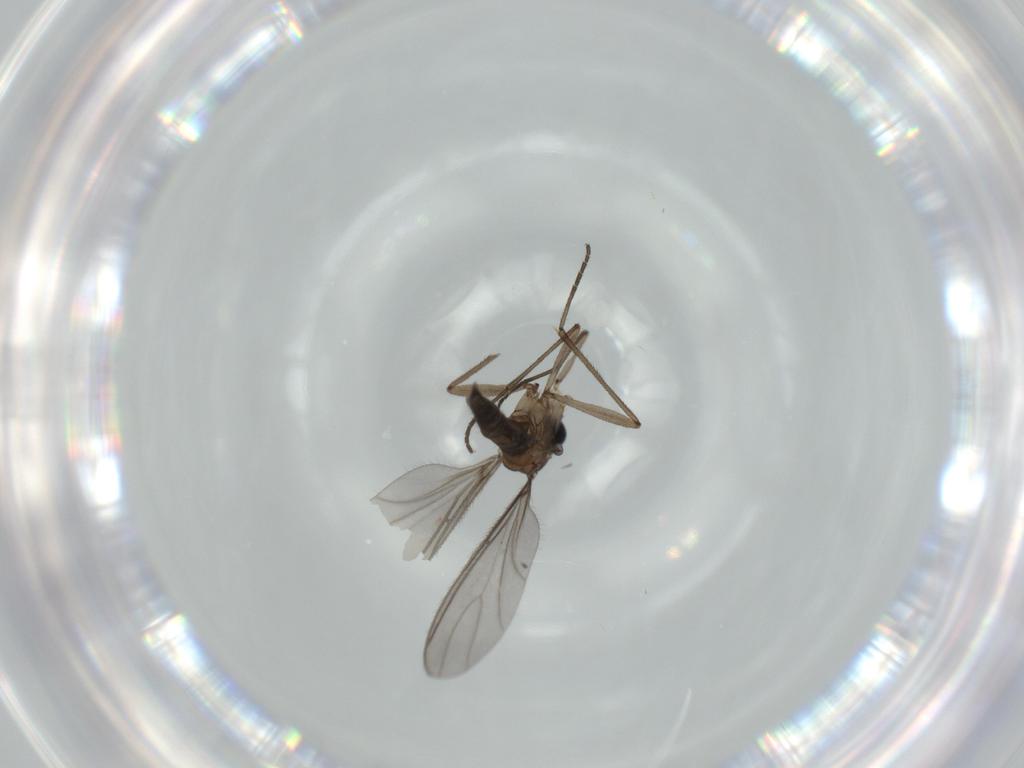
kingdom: Animalia
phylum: Arthropoda
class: Insecta
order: Diptera
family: Sciaridae
